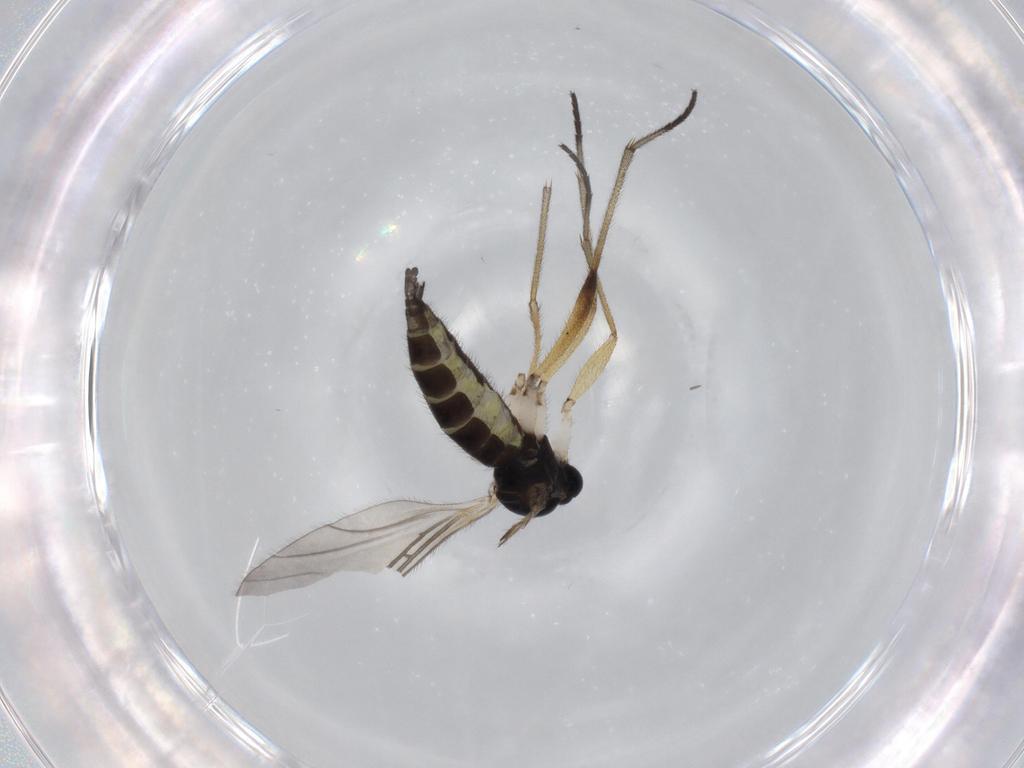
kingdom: Animalia
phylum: Arthropoda
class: Insecta
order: Diptera
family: Sciaridae
